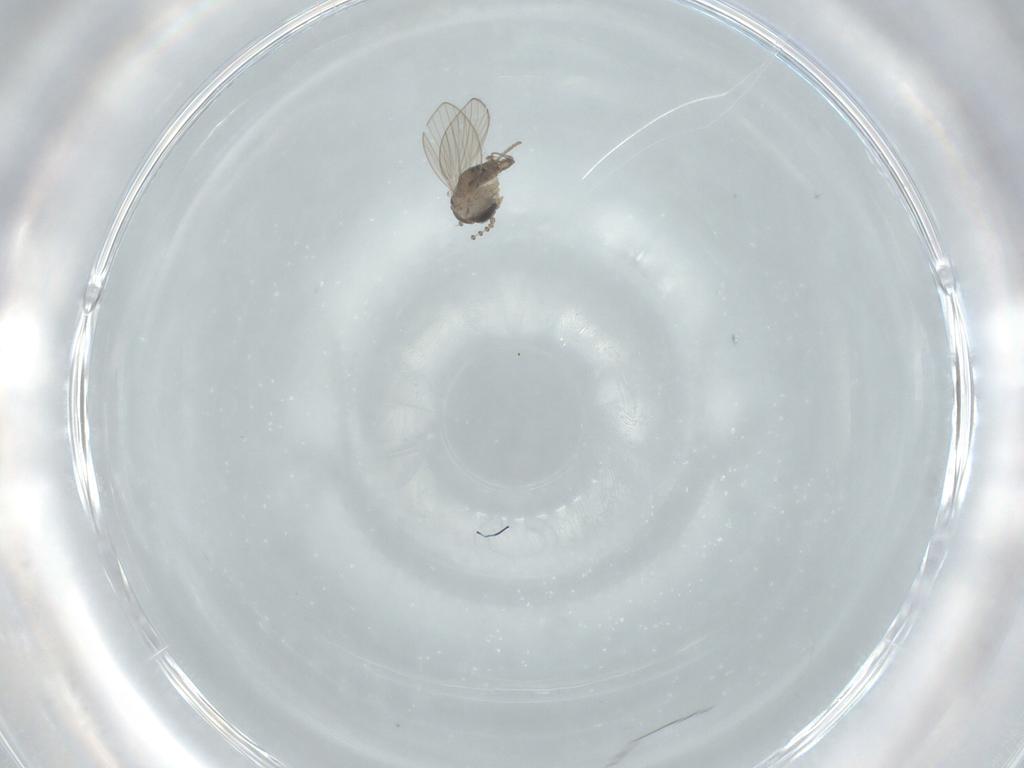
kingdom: Animalia
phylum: Arthropoda
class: Insecta
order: Diptera
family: Psychodidae
